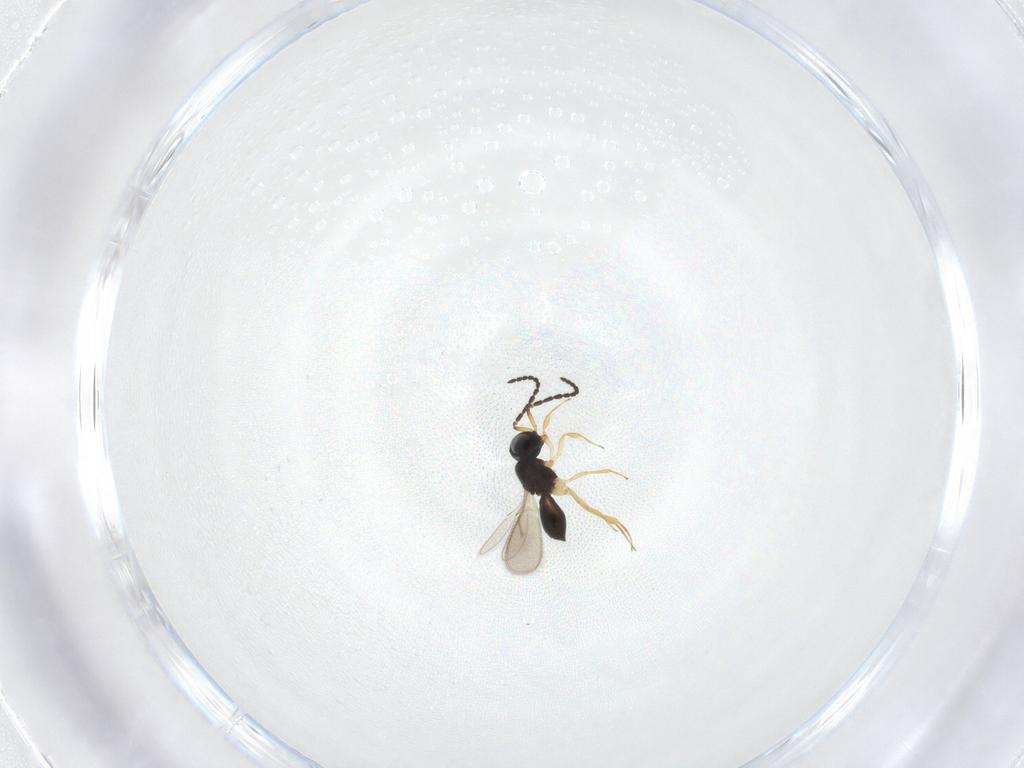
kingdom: Animalia
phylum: Arthropoda
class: Insecta
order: Hymenoptera
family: Scelionidae
